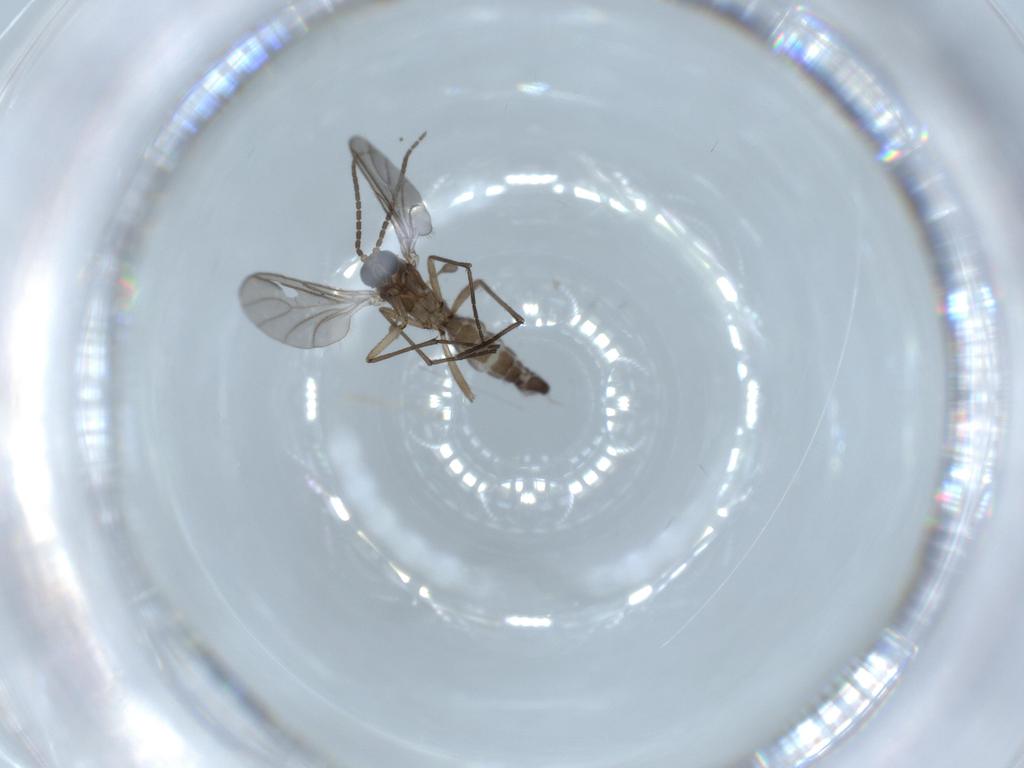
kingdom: Animalia
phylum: Arthropoda
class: Insecta
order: Diptera
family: Sciaridae
